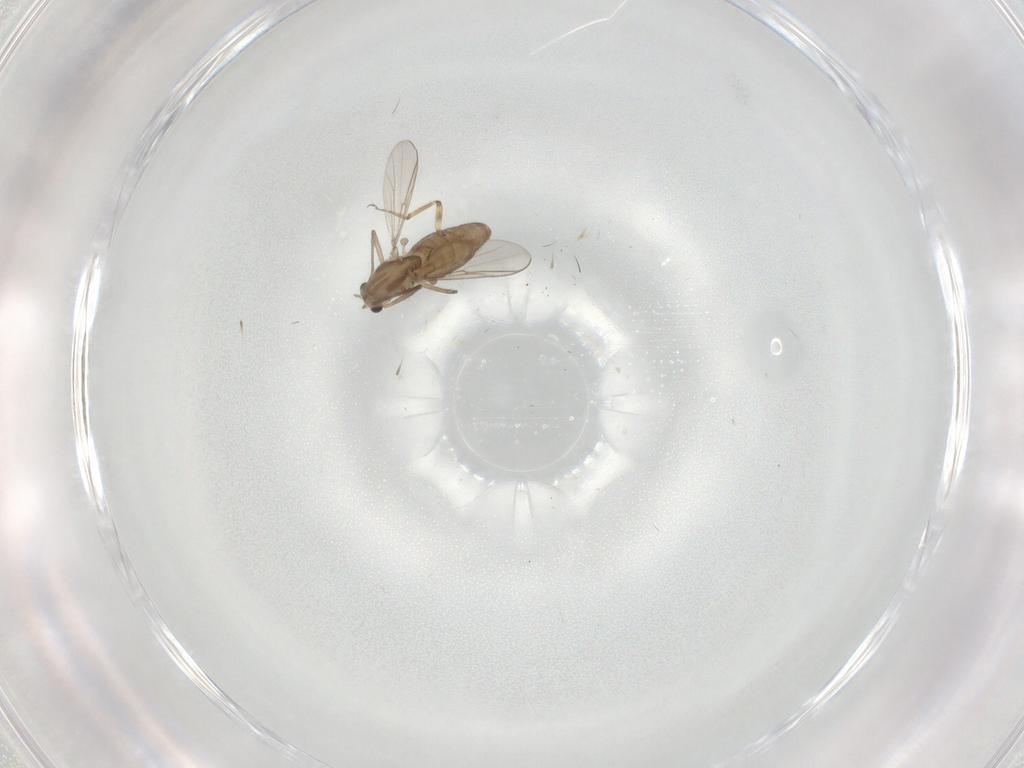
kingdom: Animalia
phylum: Arthropoda
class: Insecta
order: Diptera
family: Chironomidae
